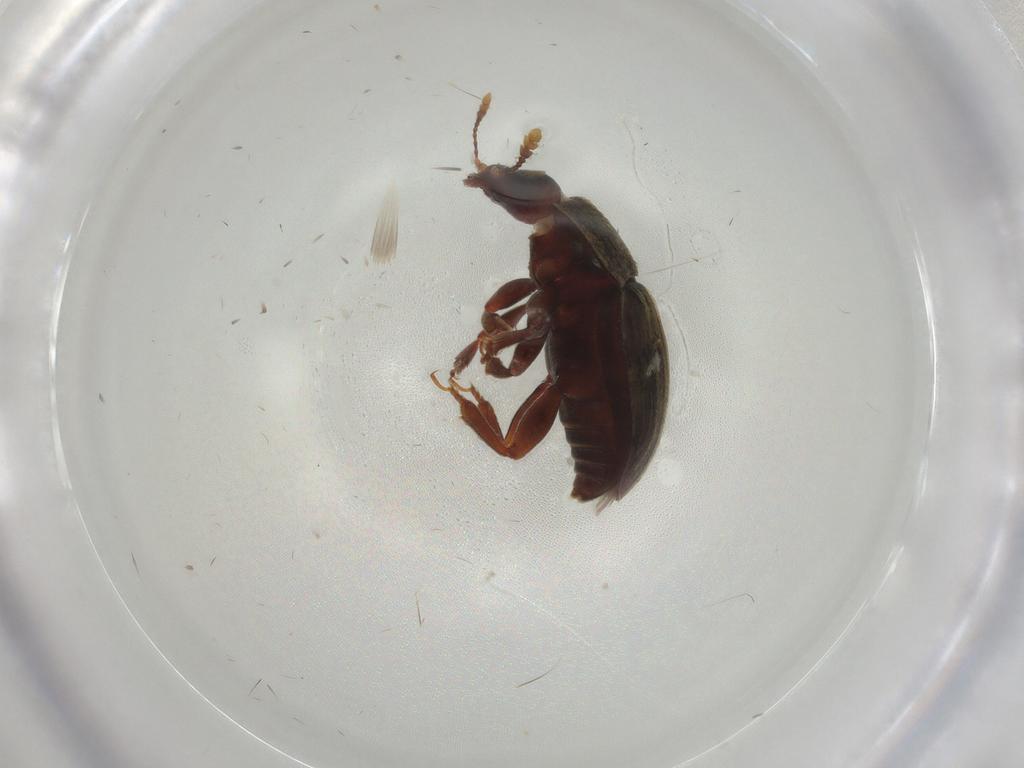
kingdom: Animalia
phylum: Arthropoda
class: Insecta
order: Coleoptera
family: Nitidulidae
